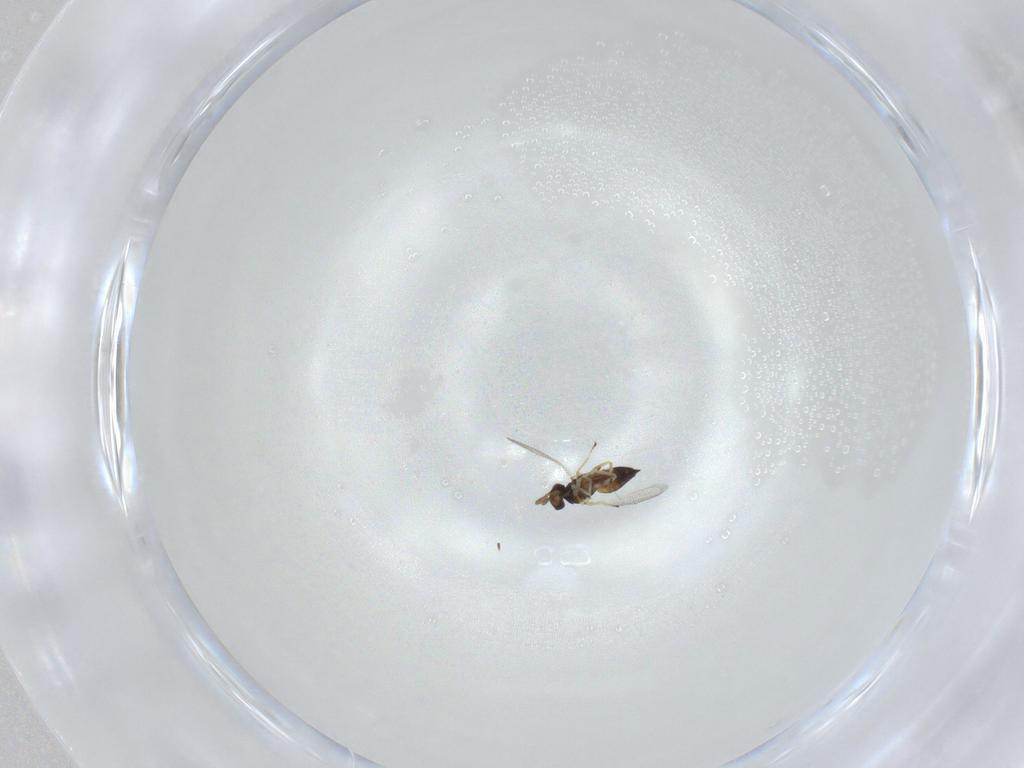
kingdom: Animalia
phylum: Arthropoda
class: Insecta
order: Hymenoptera
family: Eulophidae
